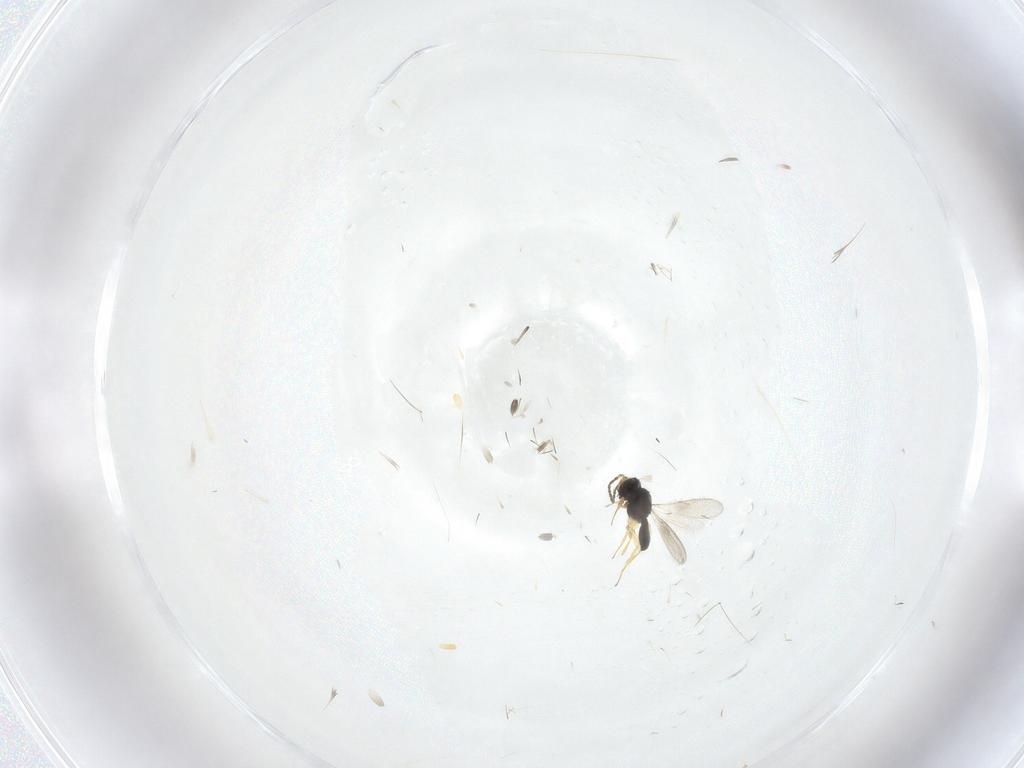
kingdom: Animalia
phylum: Arthropoda
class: Insecta
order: Hymenoptera
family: Scelionidae
